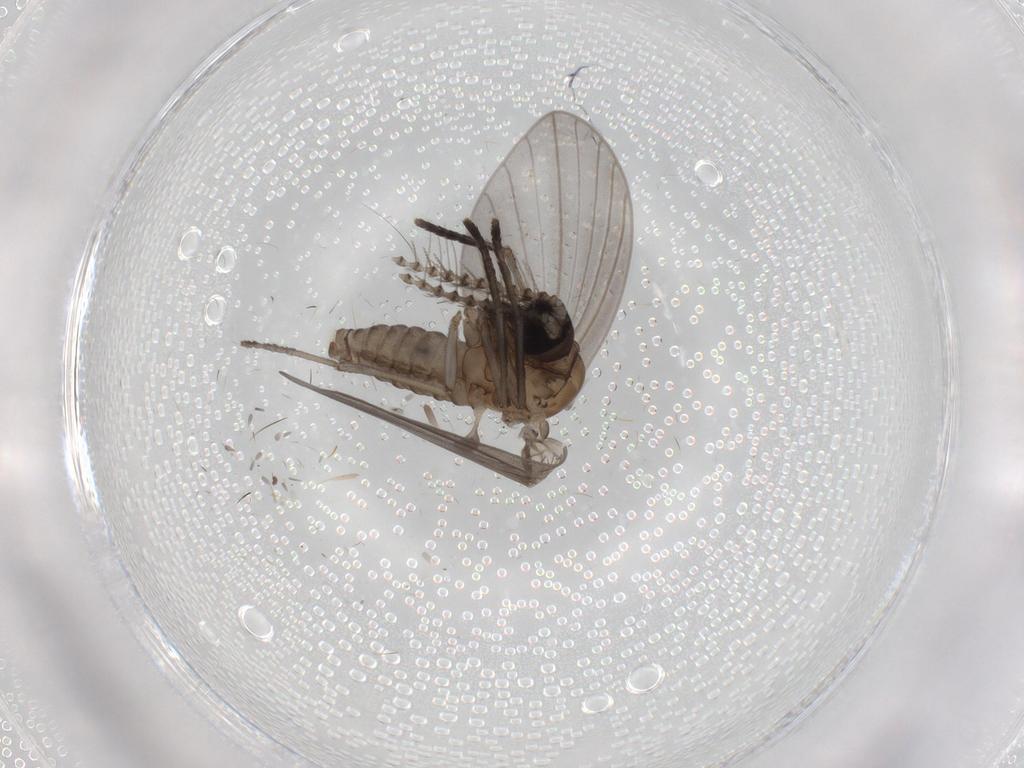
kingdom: Animalia
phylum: Arthropoda
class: Insecta
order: Diptera
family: Psychodidae
